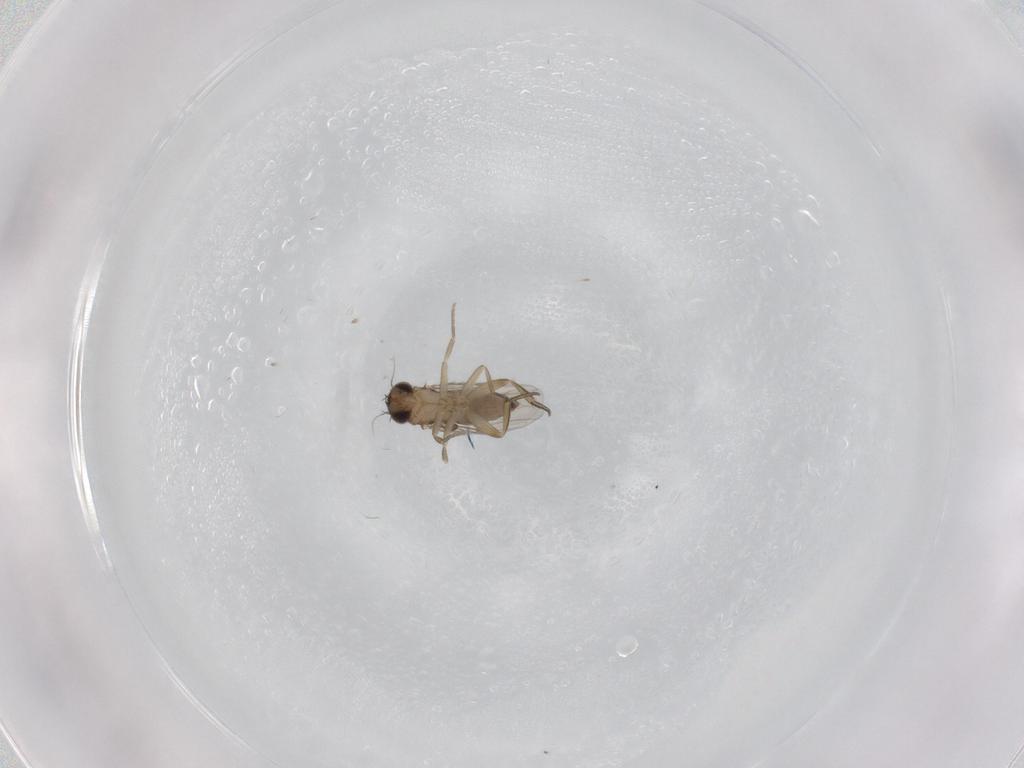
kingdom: Animalia
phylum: Arthropoda
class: Insecta
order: Diptera
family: Phoridae
